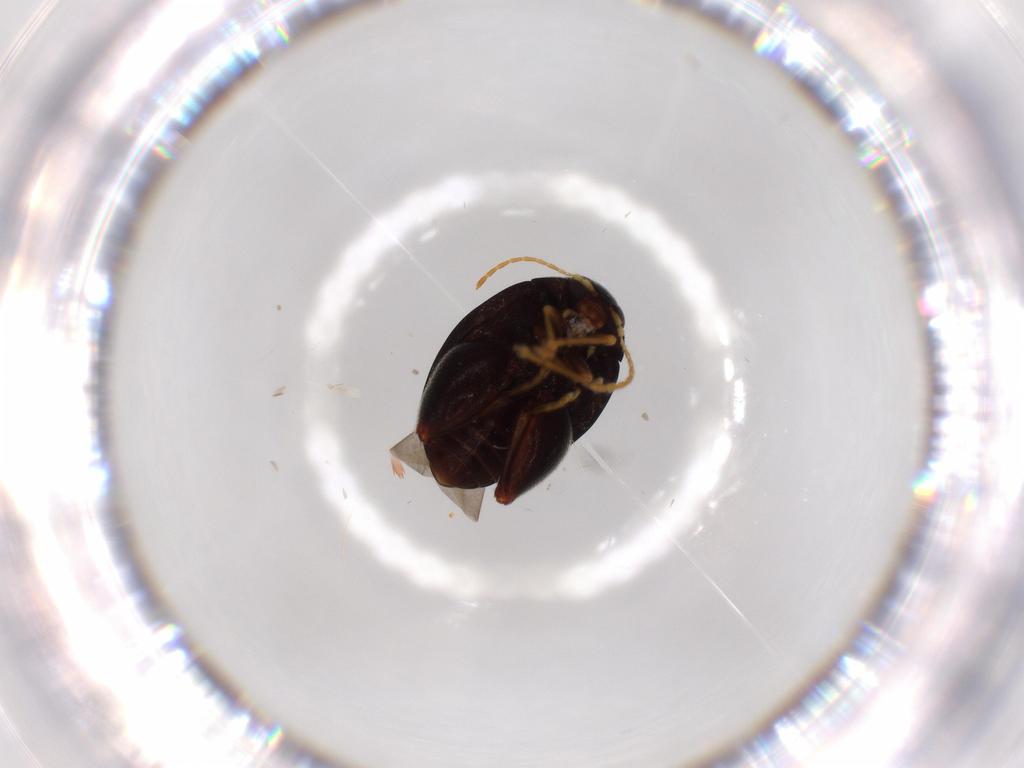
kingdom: Animalia
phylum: Arthropoda
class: Insecta
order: Coleoptera
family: Chrysomelidae
